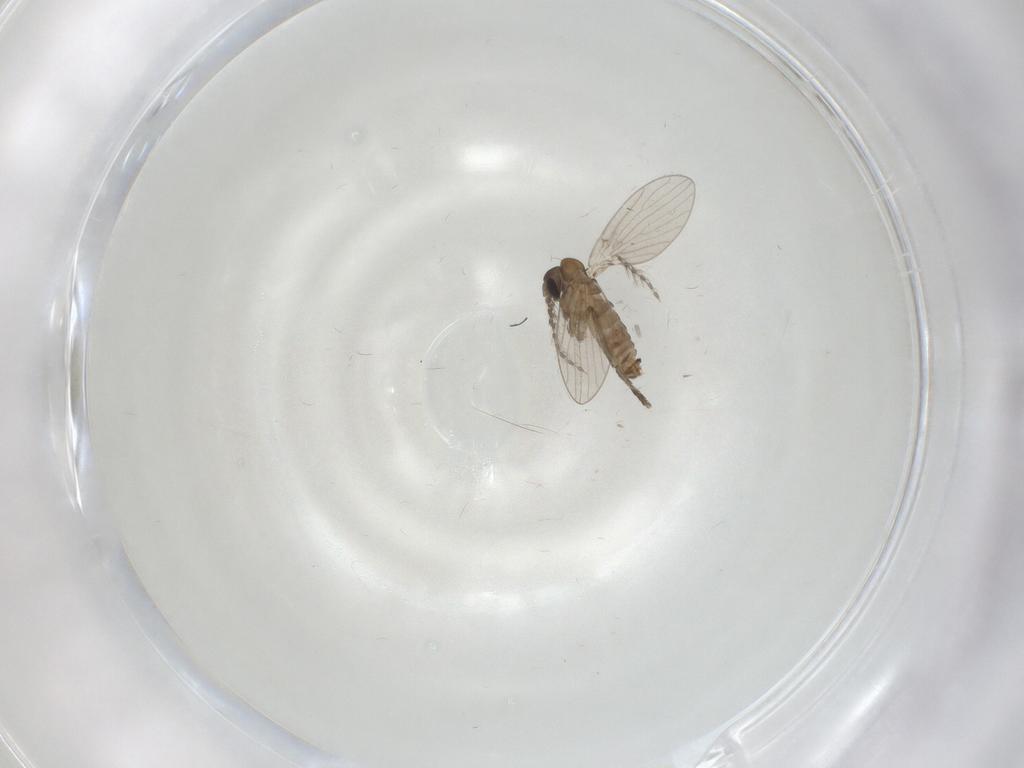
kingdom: Animalia
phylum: Arthropoda
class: Insecta
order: Diptera
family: Psychodidae
